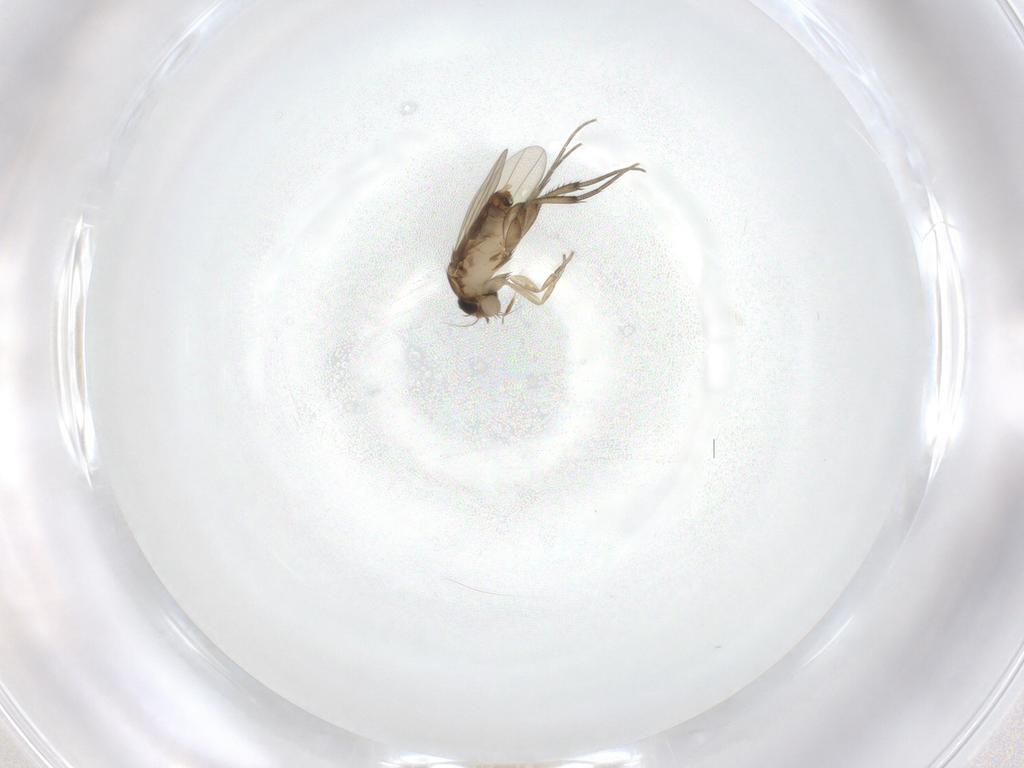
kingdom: Animalia
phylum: Arthropoda
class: Insecta
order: Diptera
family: Phoridae
